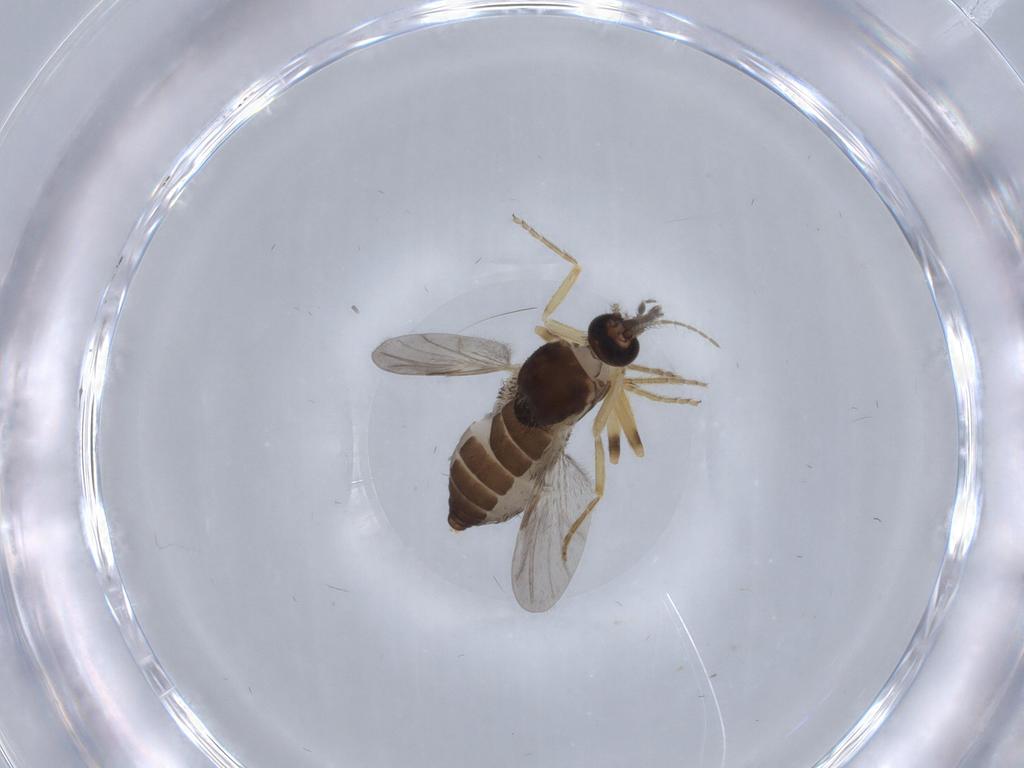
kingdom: Animalia
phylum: Arthropoda
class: Insecta
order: Diptera
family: Ceratopogonidae
